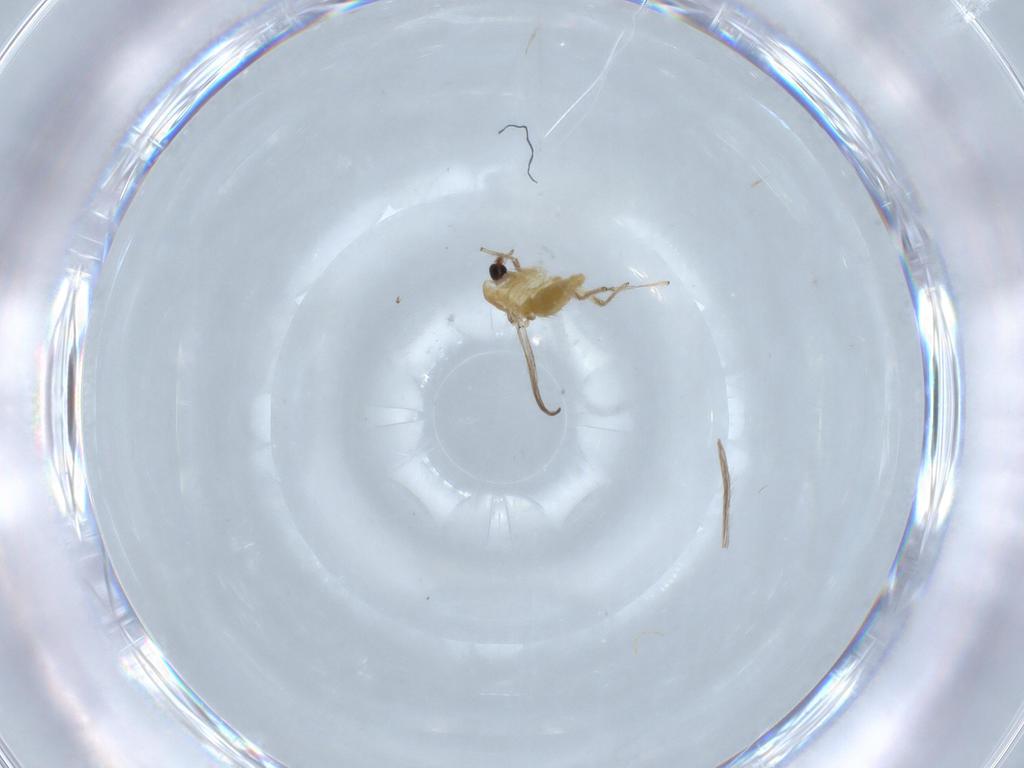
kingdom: Animalia
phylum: Arthropoda
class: Insecta
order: Diptera
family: Chironomidae
